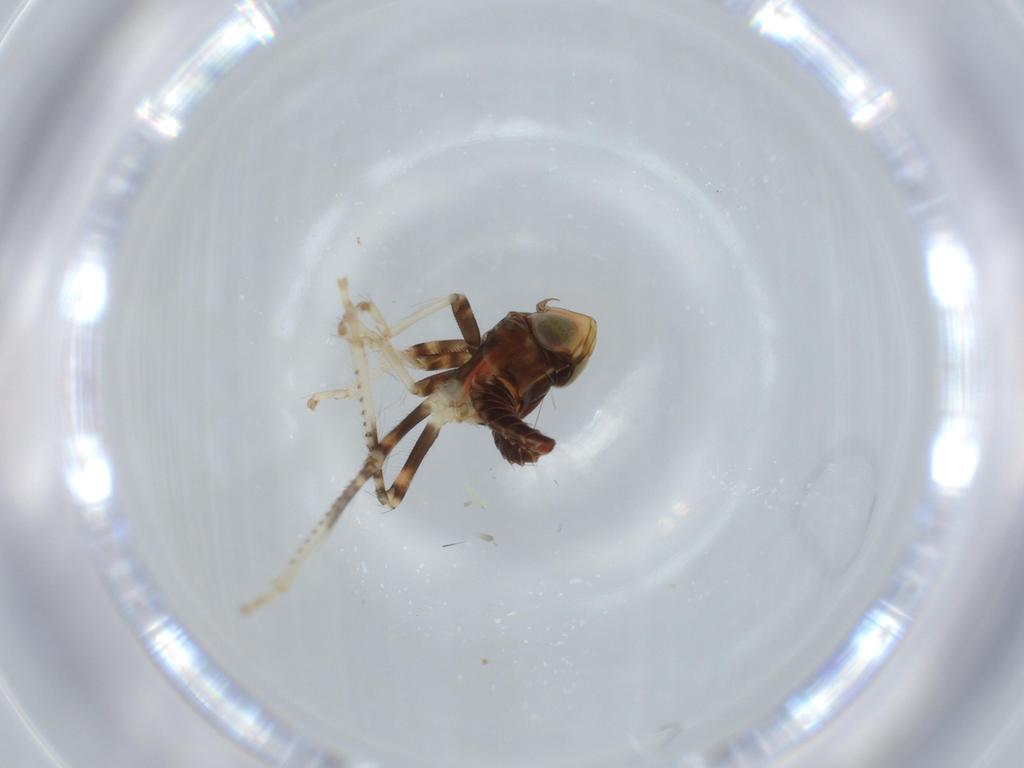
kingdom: Animalia
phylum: Arthropoda
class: Insecta
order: Hemiptera
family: Cicadellidae
